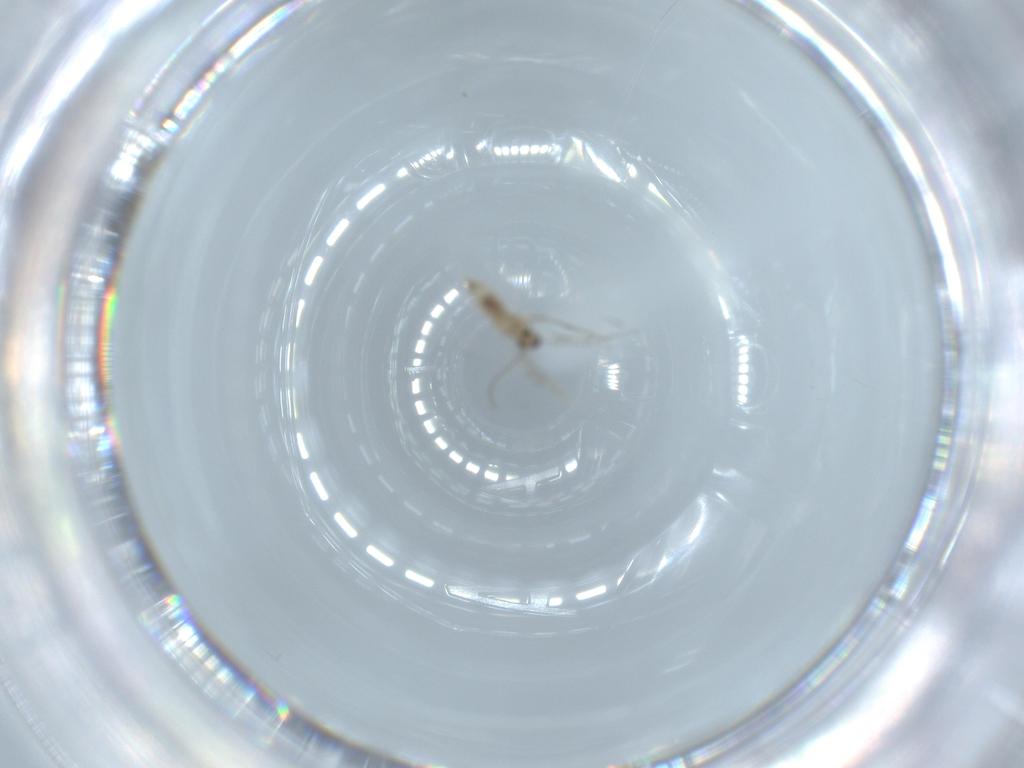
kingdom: Animalia
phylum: Arthropoda
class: Insecta
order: Diptera
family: Cecidomyiidae
